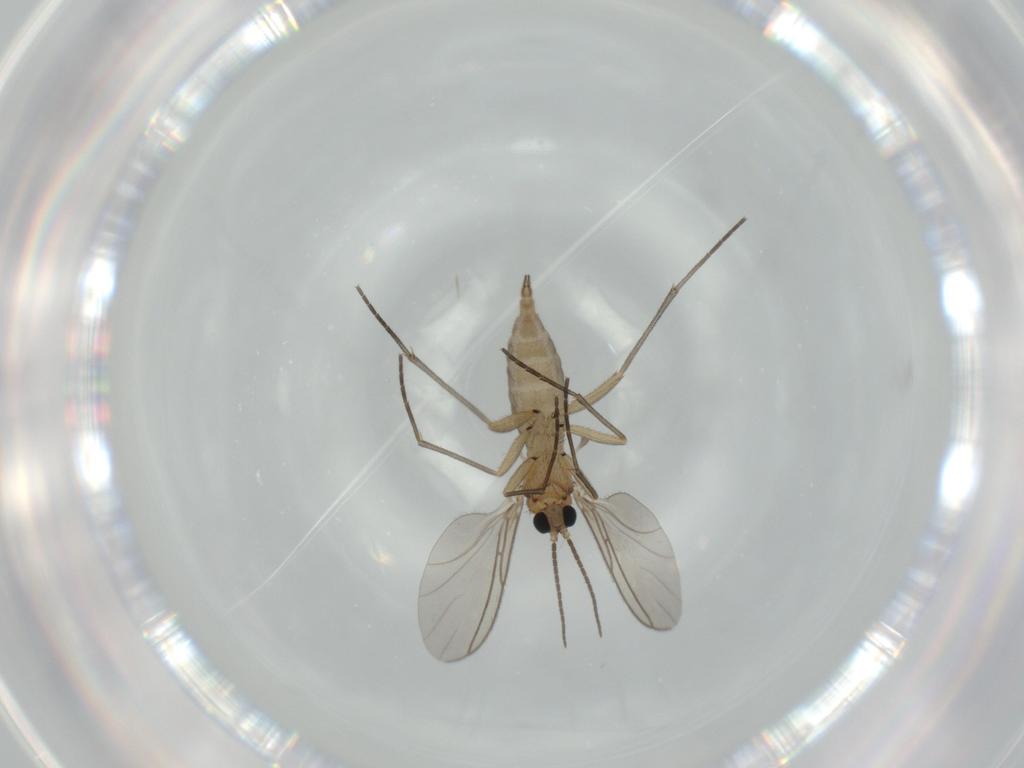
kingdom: Animalia
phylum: Arthropoda
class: Insecta
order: Diptera
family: Sciaridae
